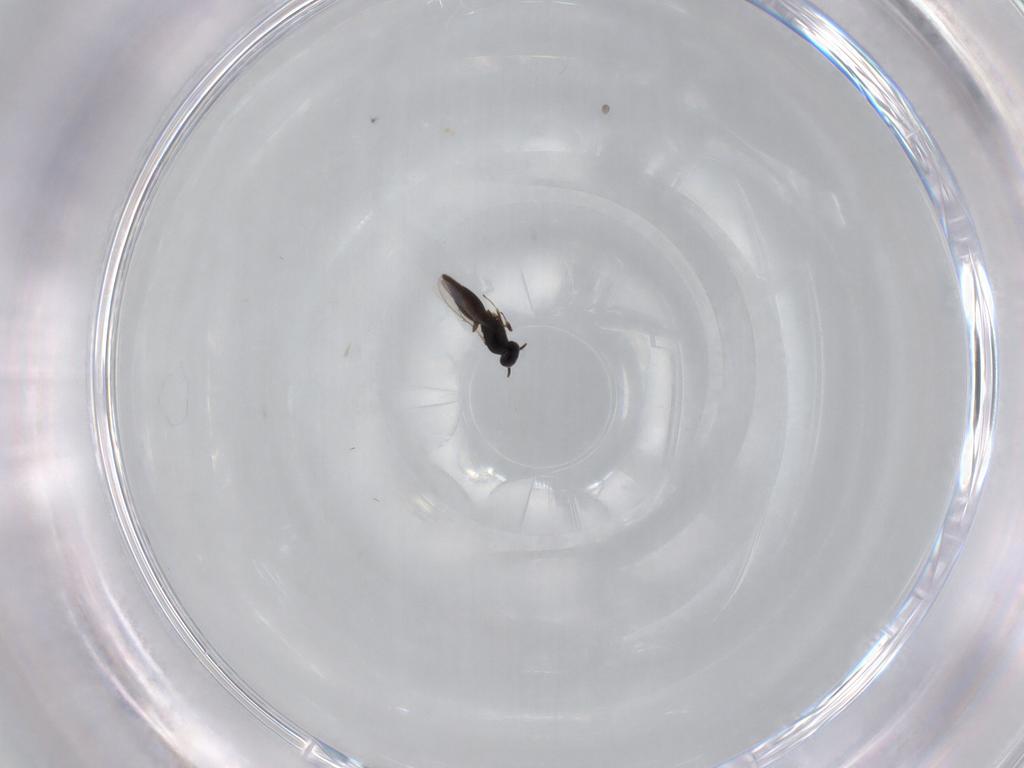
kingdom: Animalia
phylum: Arthropoda
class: Insecta
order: Hymenoptera
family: Scelionidae
